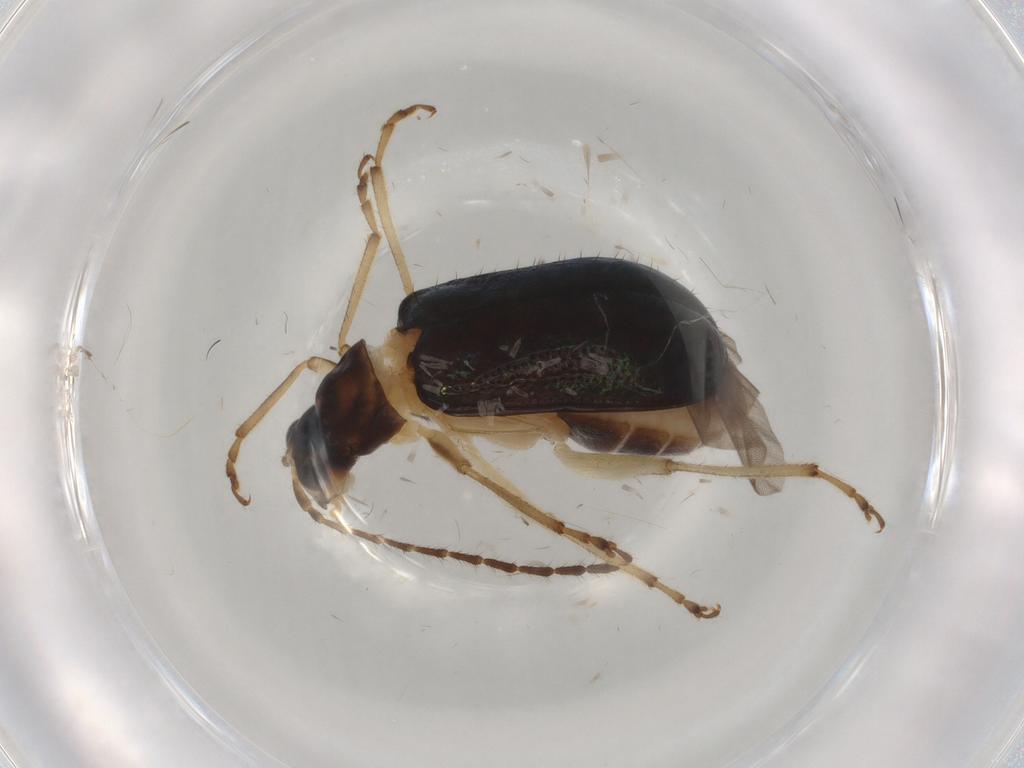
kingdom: Animalia
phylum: Arthropoda
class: Insecta
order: Coleoptera
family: Chrysomelidae
